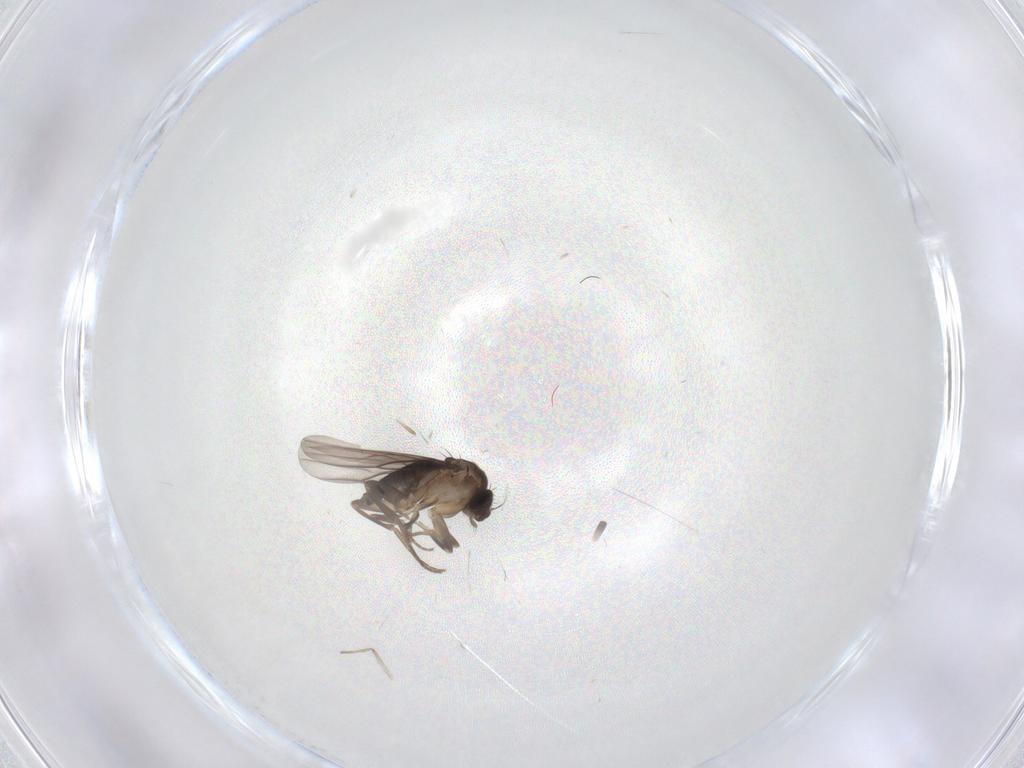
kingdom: Animalia
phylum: Arthropoda
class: Insecta
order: Diptera
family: Phoridae
